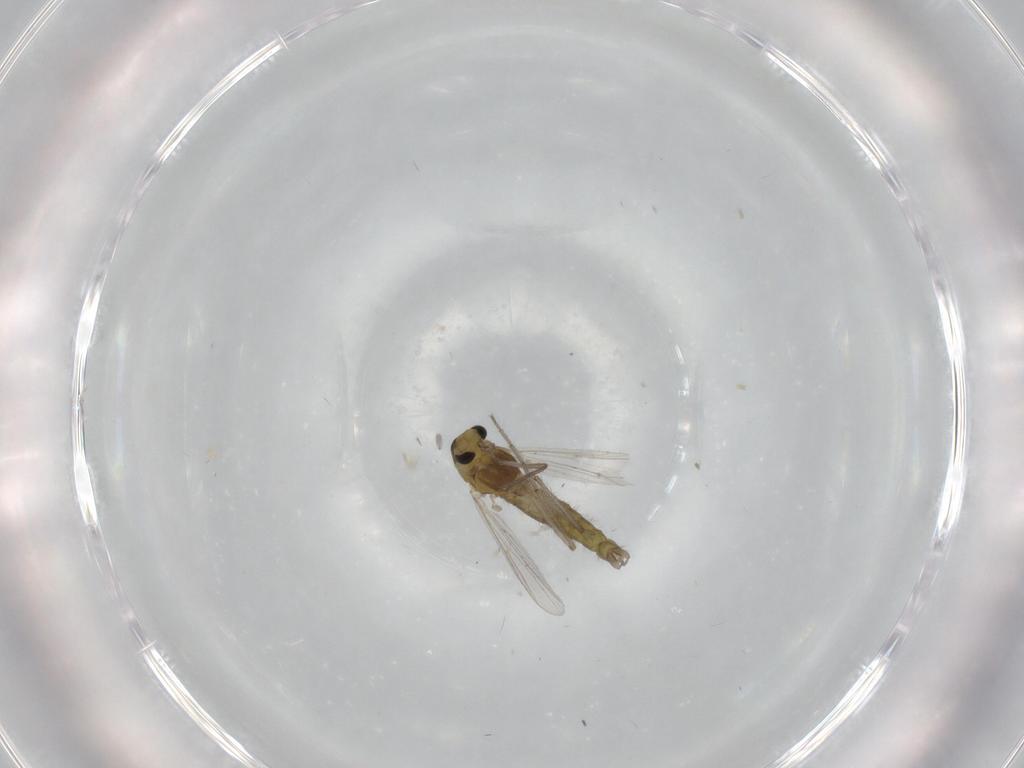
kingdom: Animalia
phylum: Arthropoda
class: Insecta
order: Diptera
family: Chironomidae
